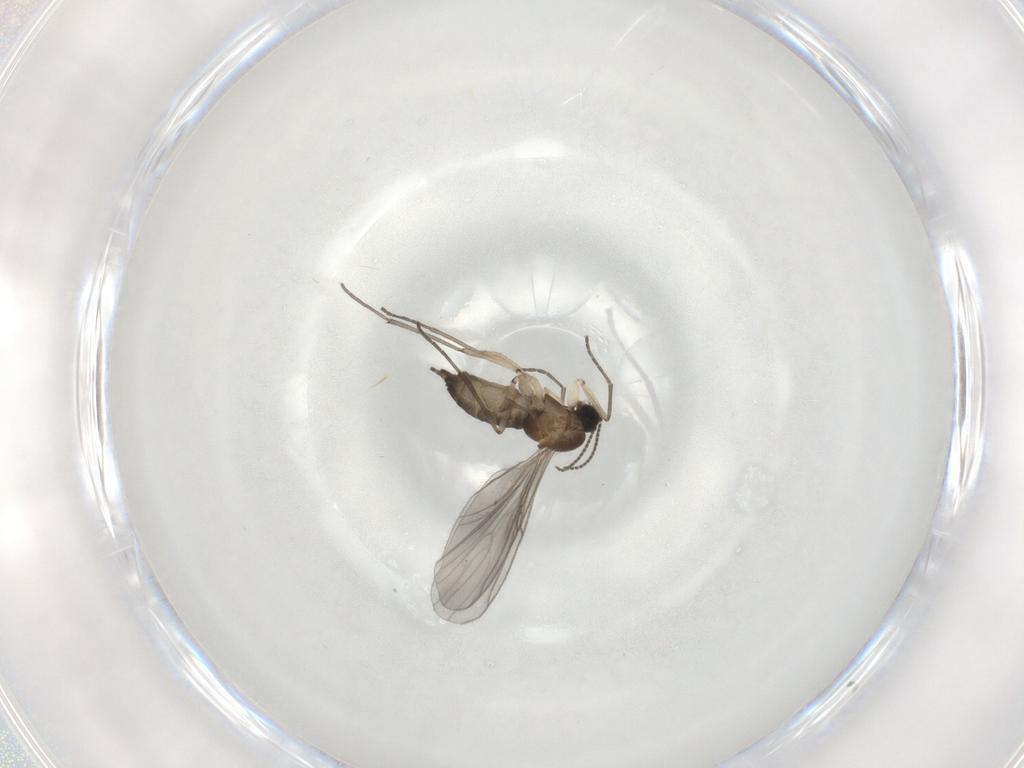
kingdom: Animalia
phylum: Arthropoda
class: Insecta
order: Diptera
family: Sciaridae
